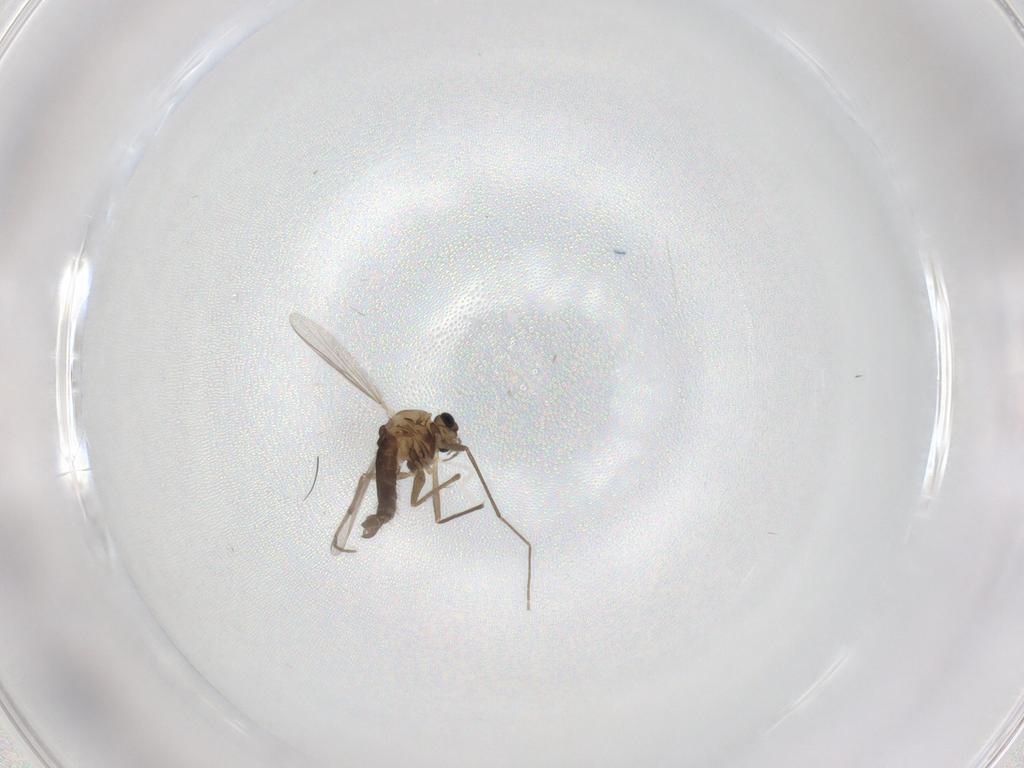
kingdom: Animalia
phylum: Arthropoda
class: Insecta
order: Diptera
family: Chironomidae
